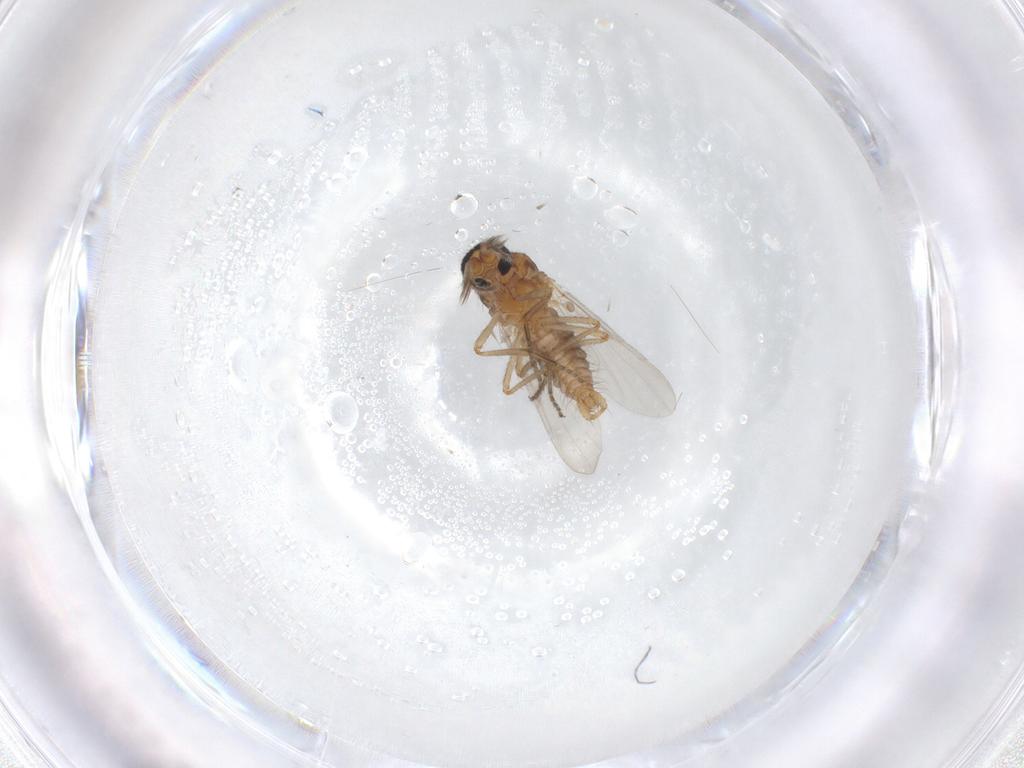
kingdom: Animalia
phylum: Arthropoda
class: Insecta
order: Diptera
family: Ceratopogonidae
